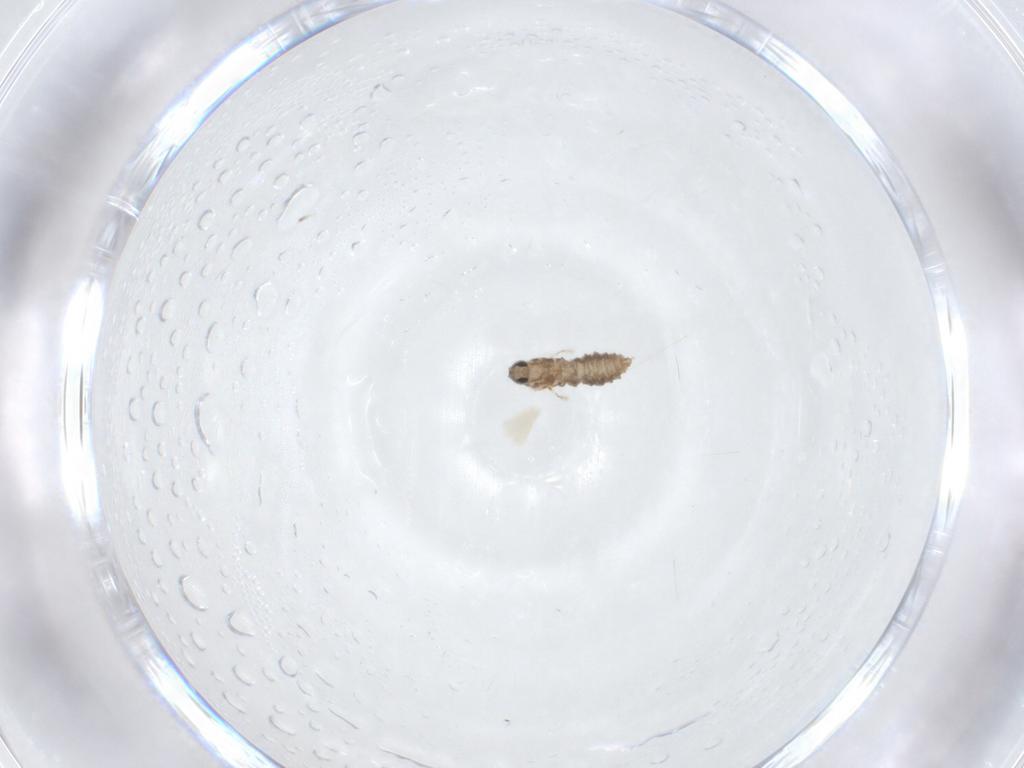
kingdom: Animalia
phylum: Arthropoda
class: Insecta
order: Diptera
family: Cecidomyiidae
